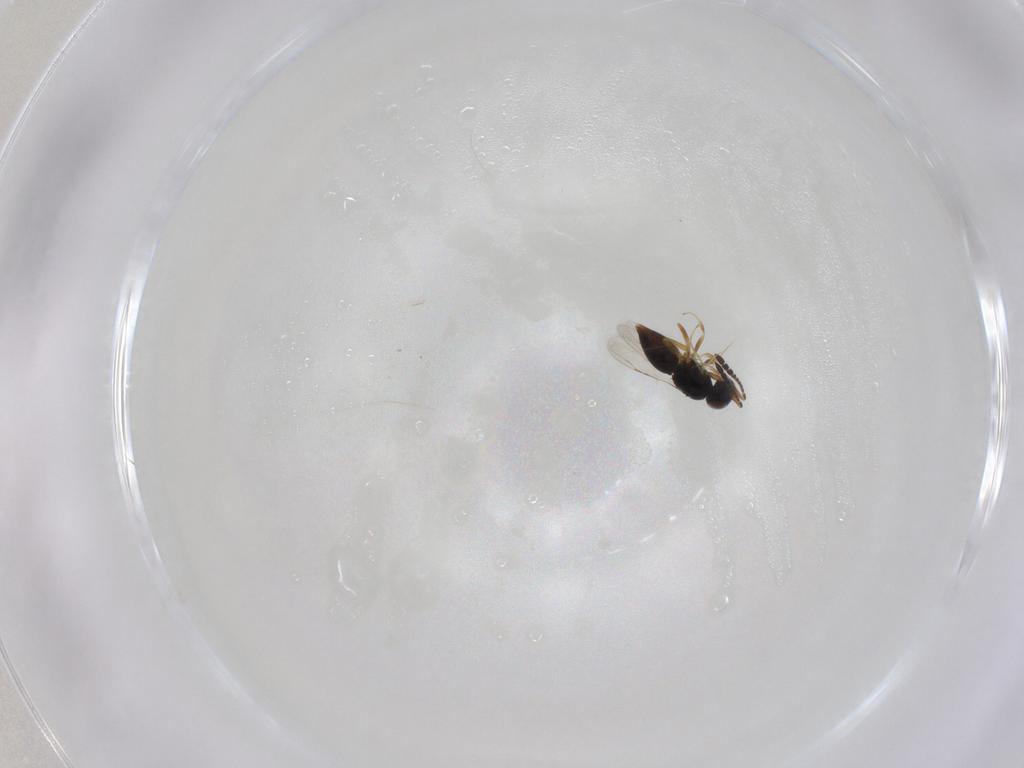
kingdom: Animalia
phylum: Arthropoda
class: Insecta
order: Hymenoptera
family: Ceraphronidae
